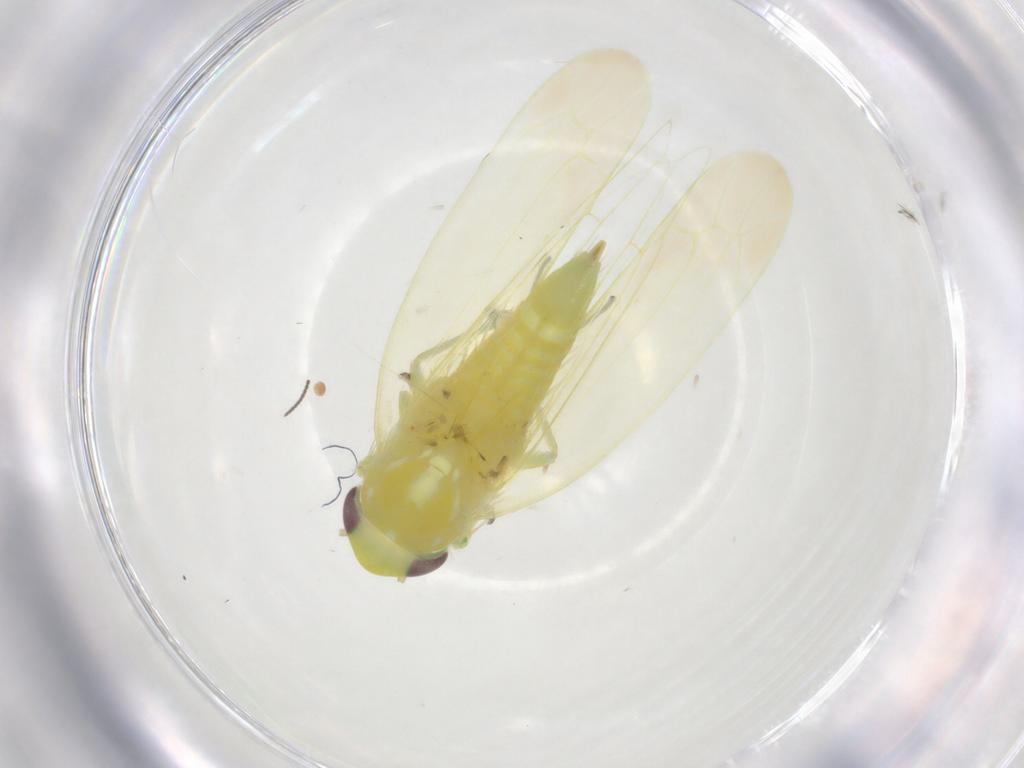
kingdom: Animalia
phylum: Arthropoda
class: Insecta
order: Hemiptera
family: Cicadellidae
